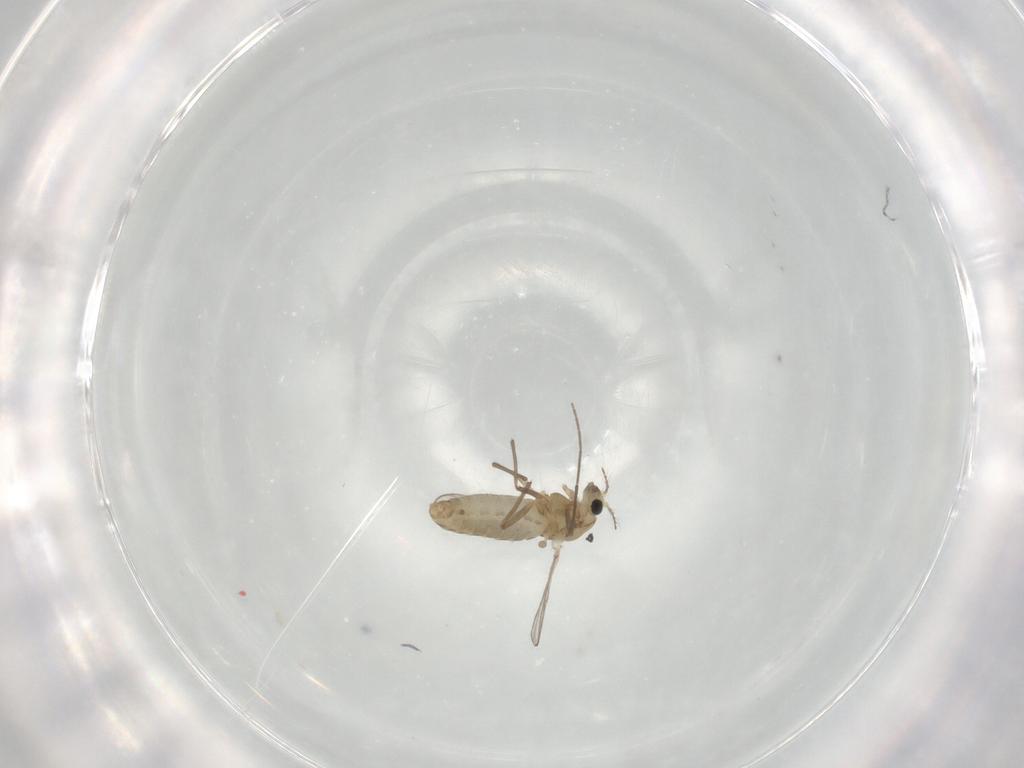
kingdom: Animalia
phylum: Arthropoda
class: Insecta
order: Diptera
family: Chironomidae
